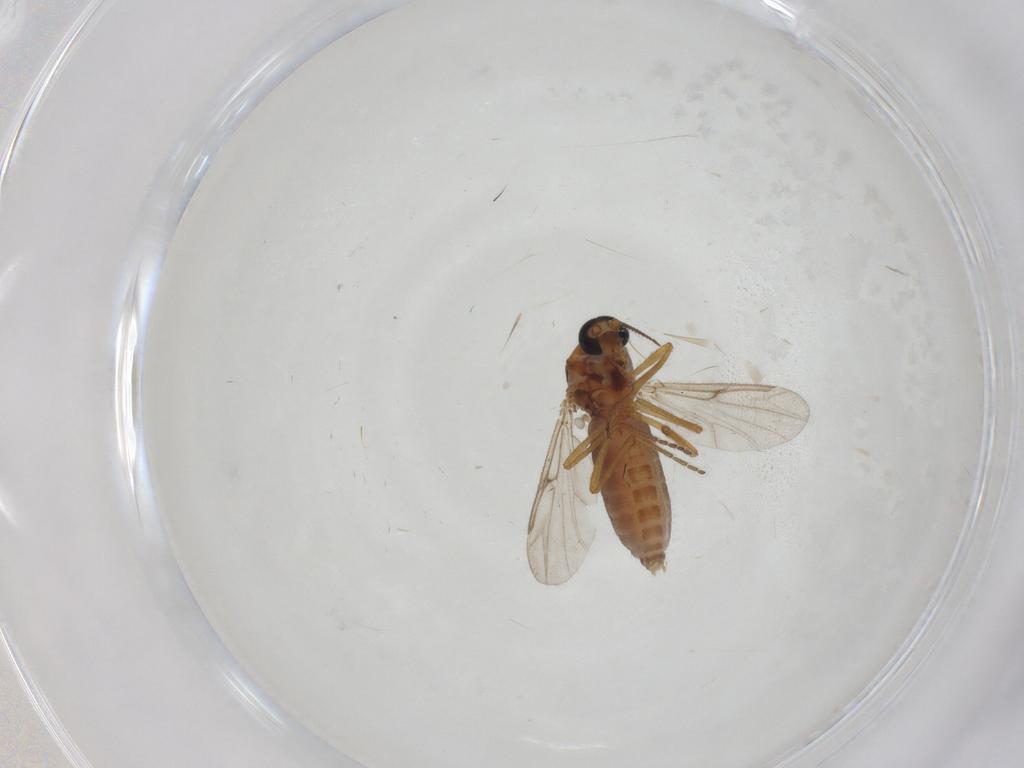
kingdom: Animalia
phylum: Arthropoda
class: Insecta
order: Diptera
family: Ceratopogonidae
